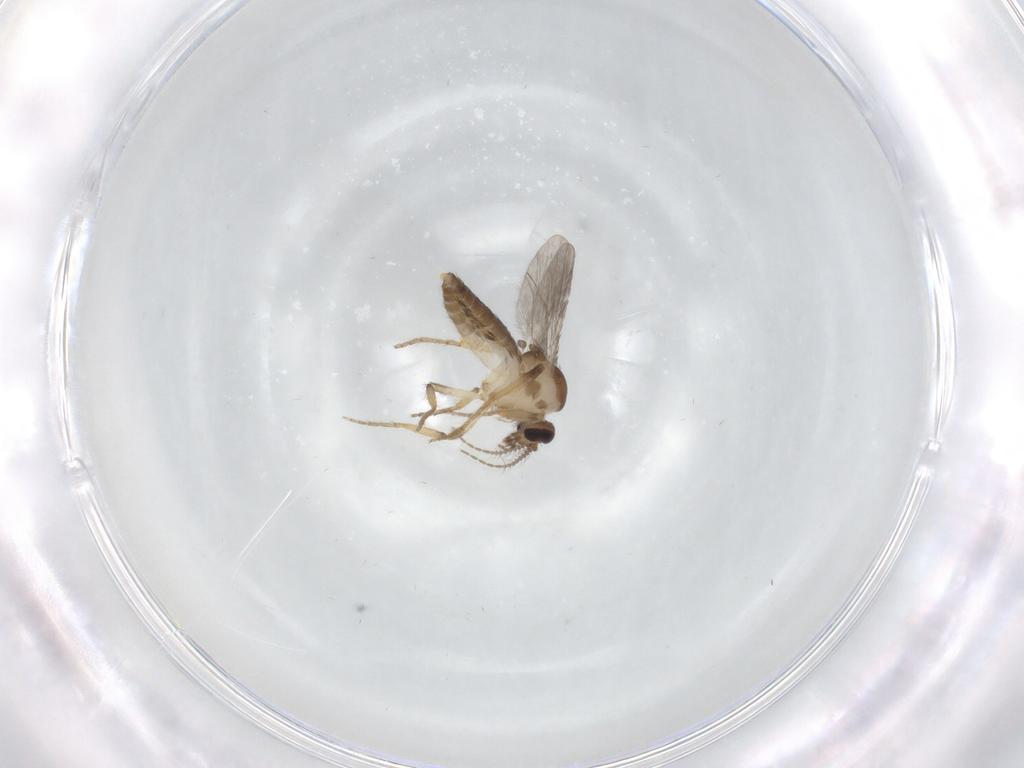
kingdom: Animalia
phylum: Arthropoda
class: Insecta
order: Diptera
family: Ceratopogonidae
